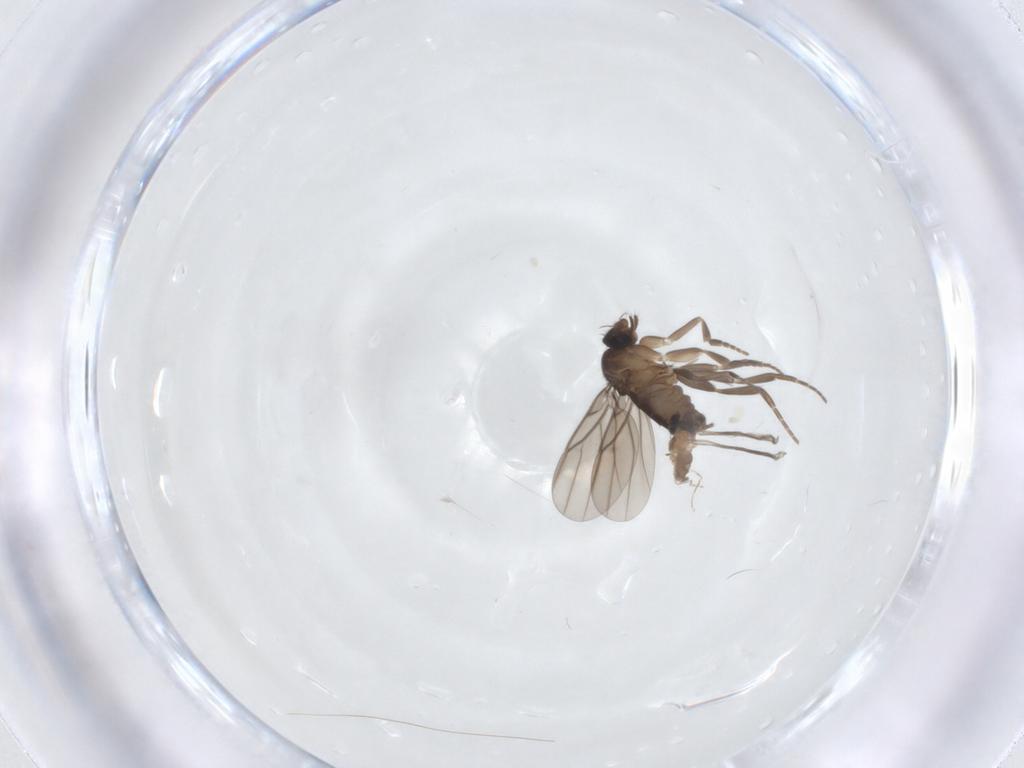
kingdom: Animalia
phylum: Arthropoda
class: Insecta
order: Diptera
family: Phoridae
